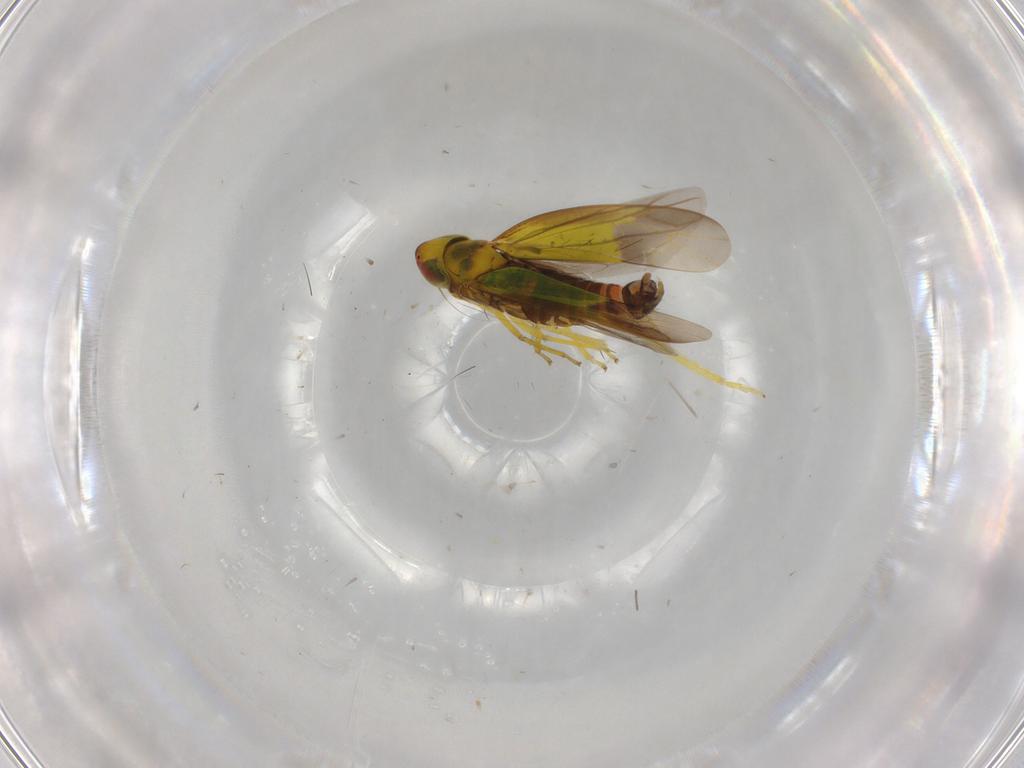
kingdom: Animalia
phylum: Arthropoda
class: Insecta
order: Hemiptera
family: Cicadellidae
